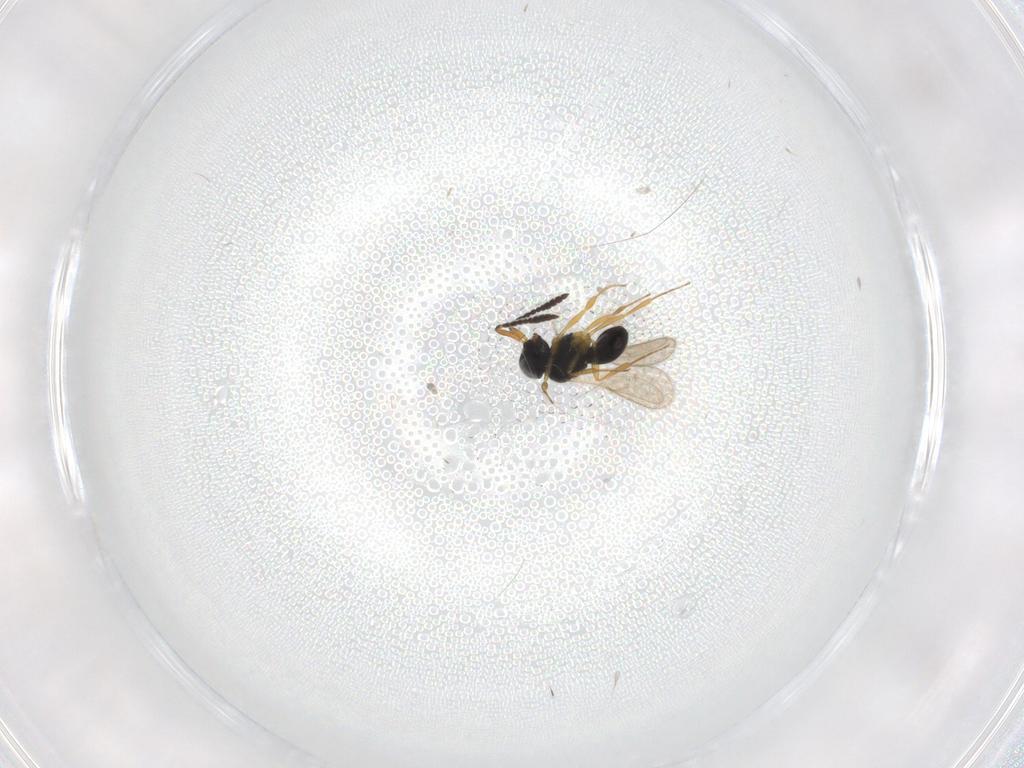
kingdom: Animalia
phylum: Arthropoda
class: Insecta
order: Hymenoptera
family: Scelionidae
